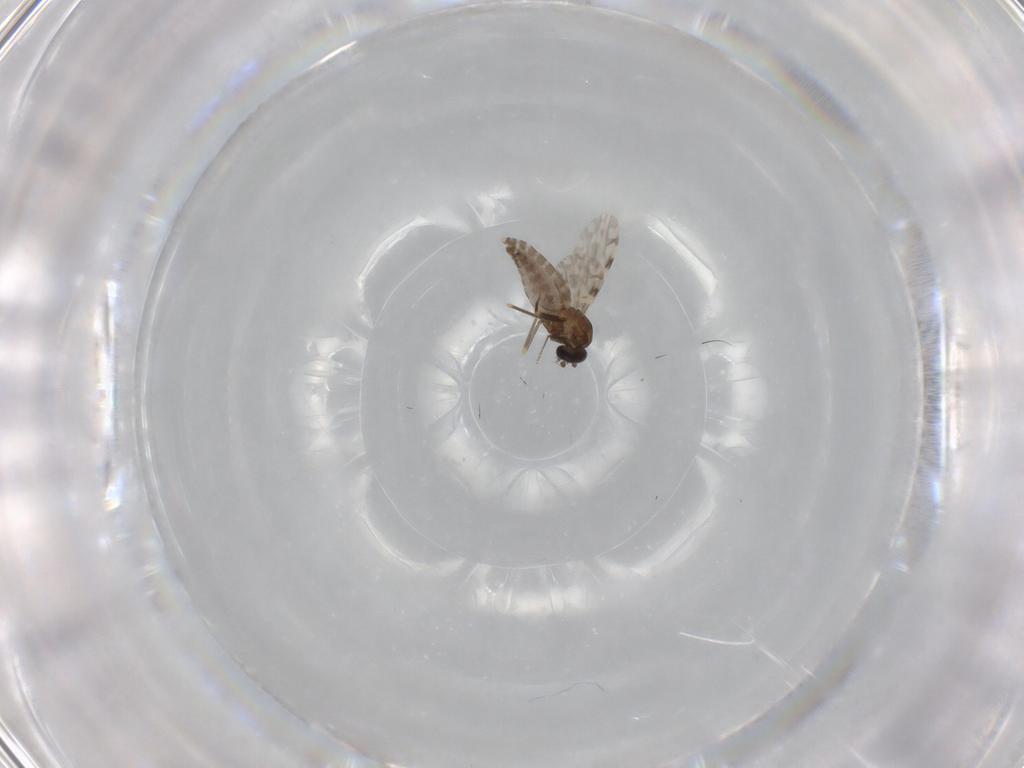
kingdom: Animalia
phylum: Arthropoda
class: Insecta
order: Diptera
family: Ceratopogonidae
